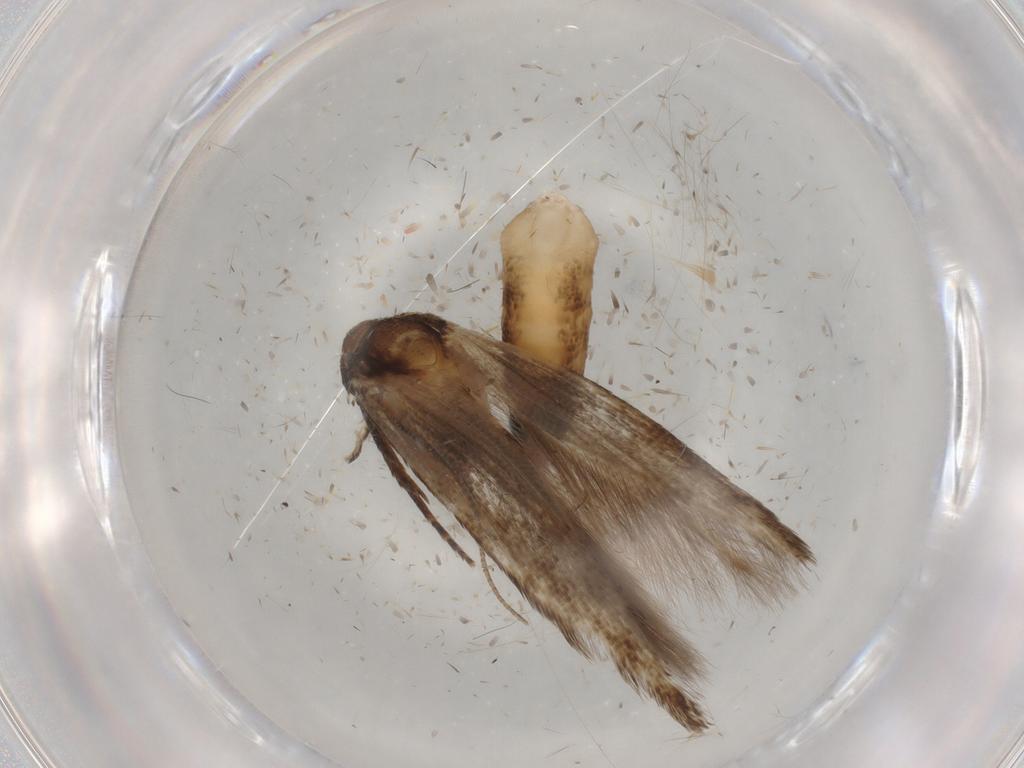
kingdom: Animalia
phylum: Arthropoda
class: Insecta
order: Lepidoptera
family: Cosmopterigidae
